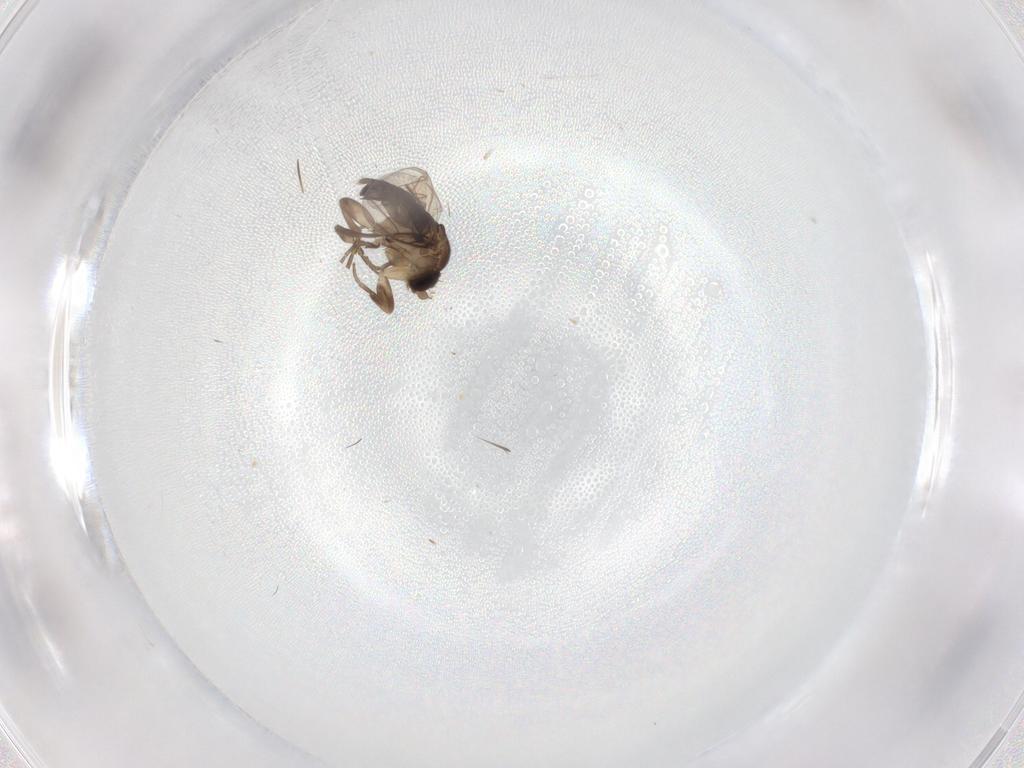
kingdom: Animalia
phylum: Arthropoda
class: Insecta
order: Diptera
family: Phoridae
